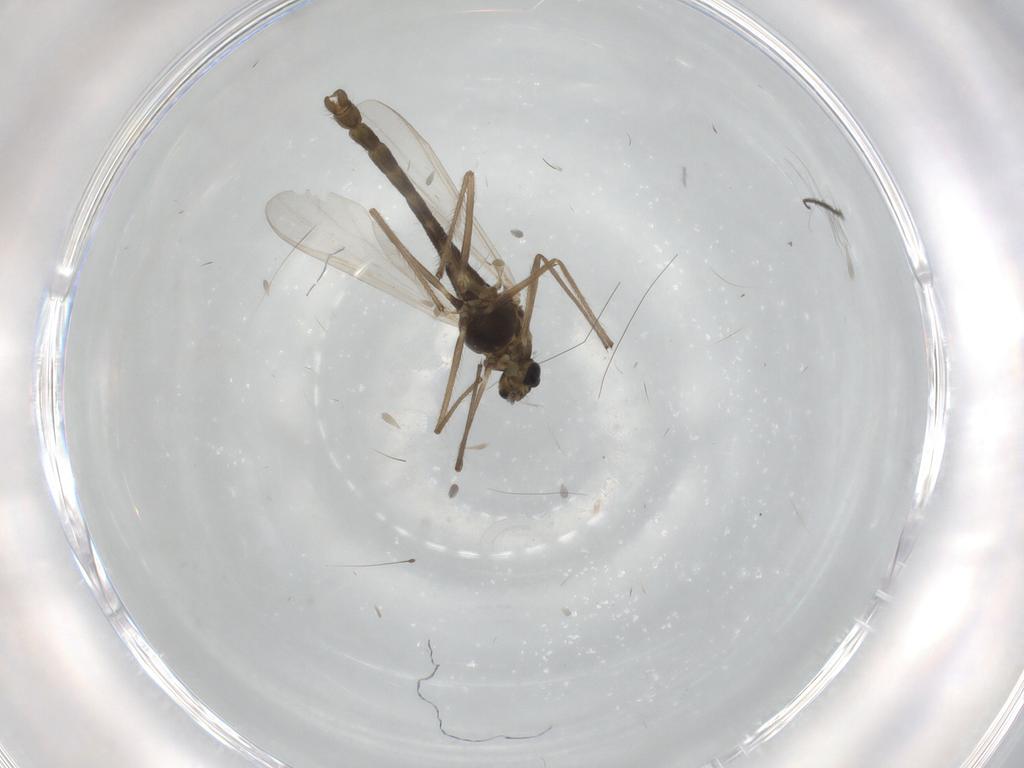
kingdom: Animalia
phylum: Arthropoda
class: Insecta
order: Diptera
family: Chironomidae
